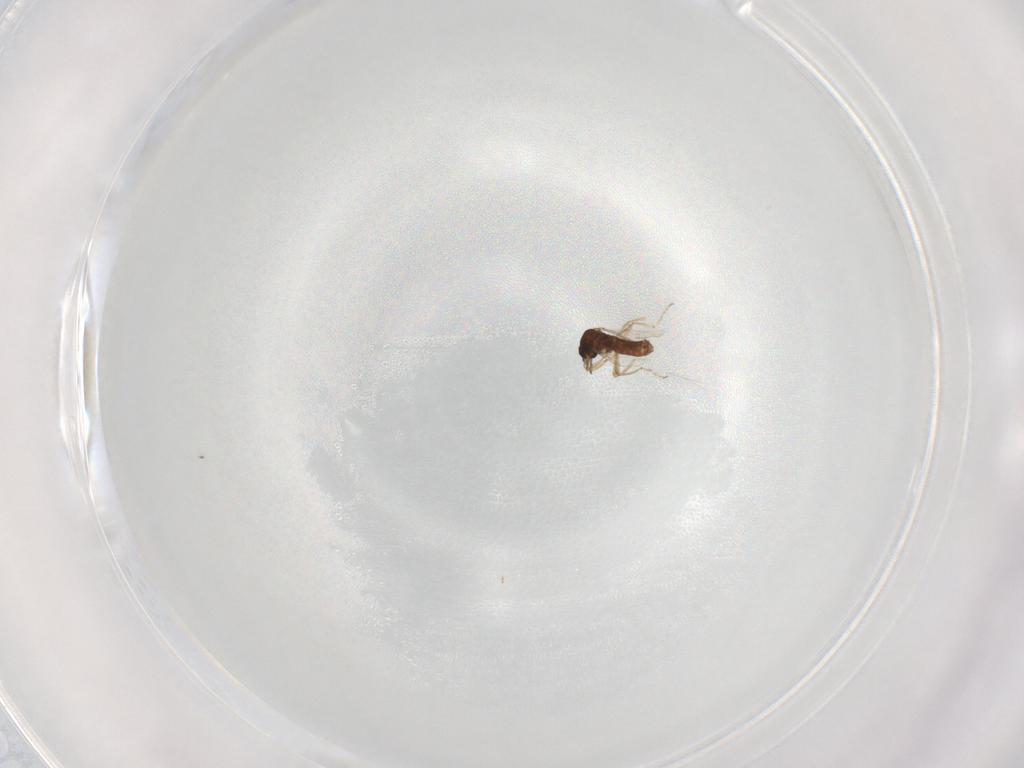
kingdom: Animalia
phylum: Arthropoda
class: Insecta
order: Diptera
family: Ceratopogonidae
